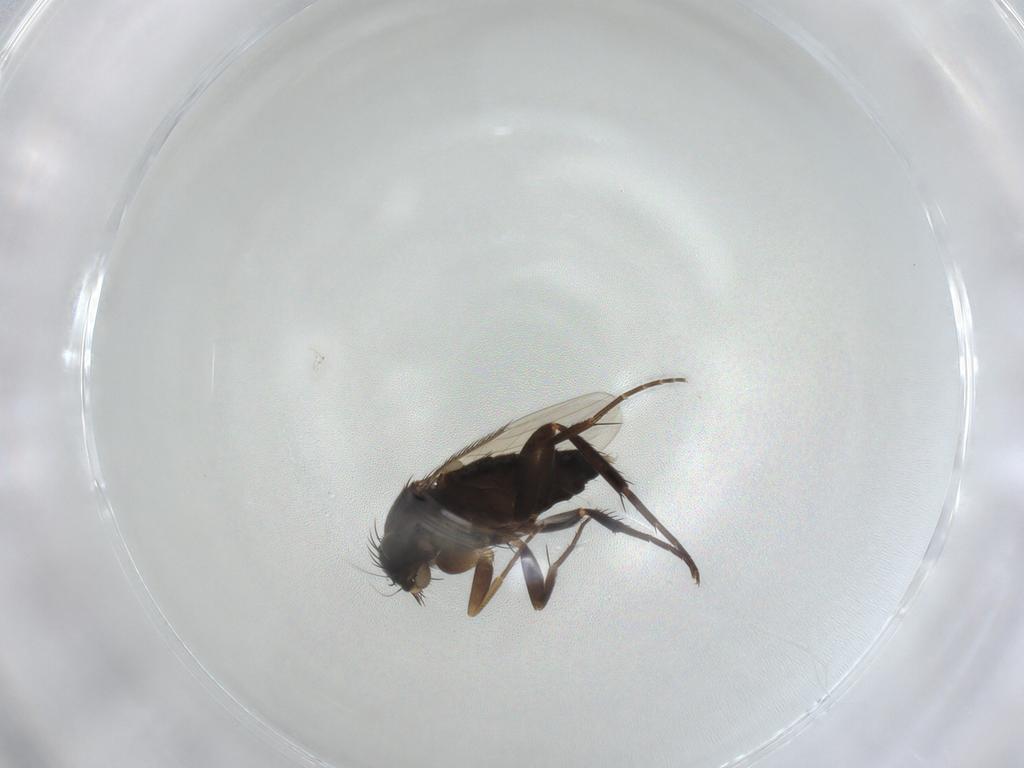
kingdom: Animalia
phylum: Arthropoda
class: Insecta
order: Diptera
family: Phoridae
